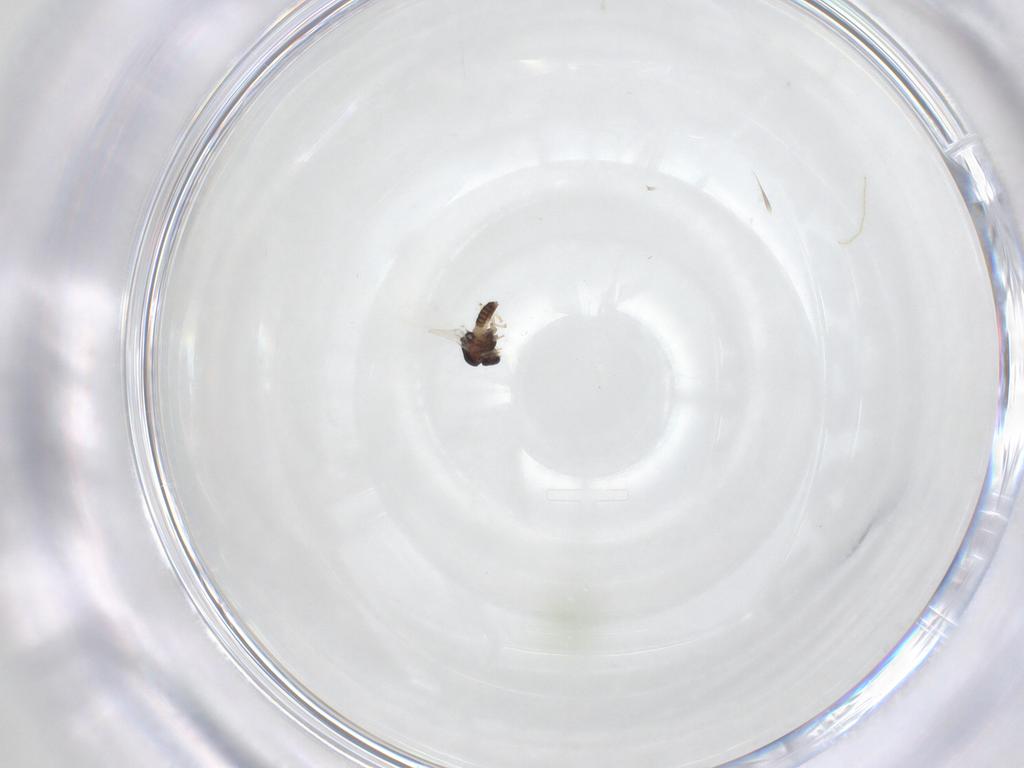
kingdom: Animalia
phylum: Arthropoda
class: Insecta
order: Diptera
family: Chironomidae
